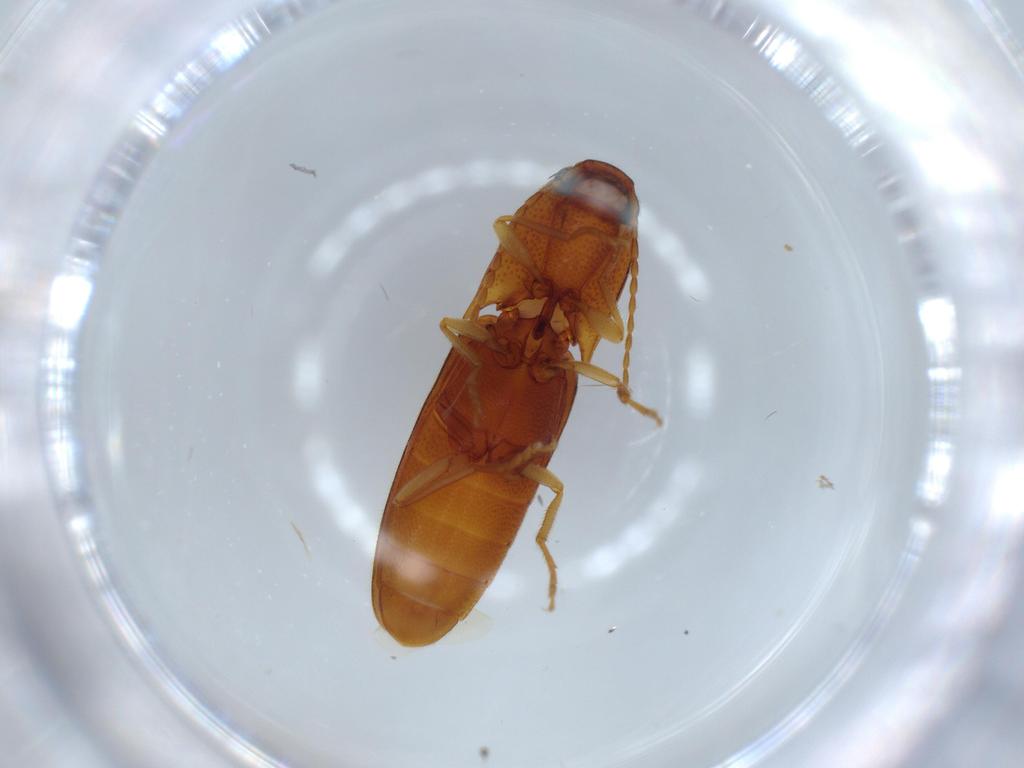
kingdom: Animalia
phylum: Arthropoda
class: Insecta
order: Coleoptera
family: Elateridae
